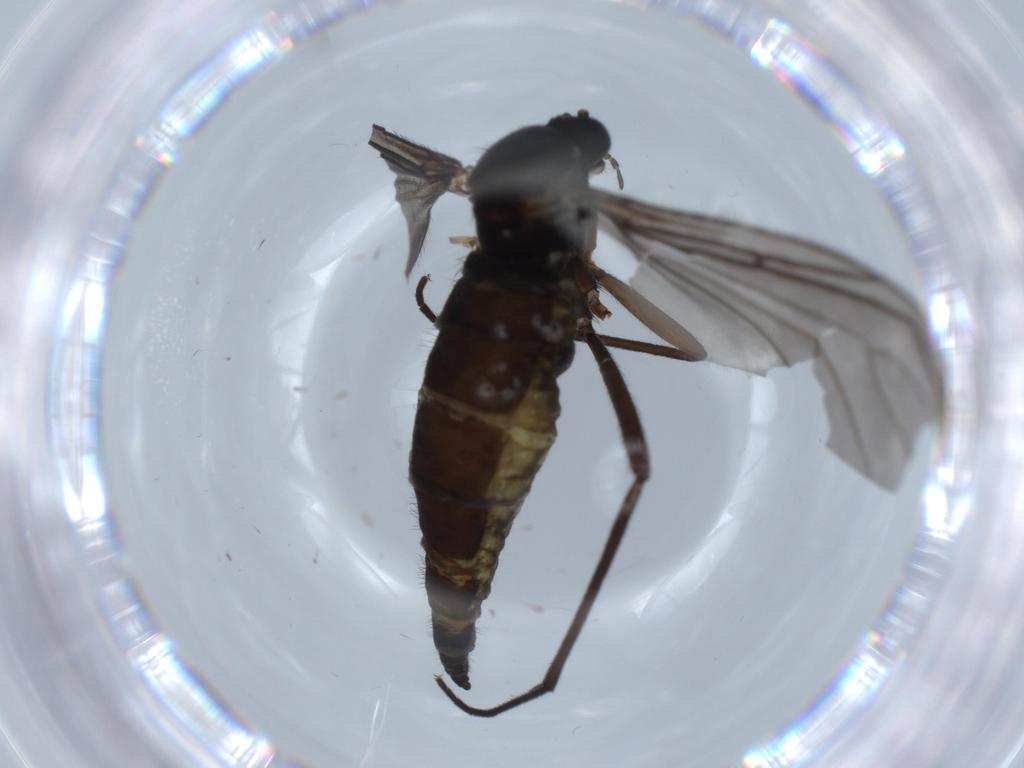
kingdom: Animalia
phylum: Arthropoda
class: Insecta
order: Diptera
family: Sciaridae
